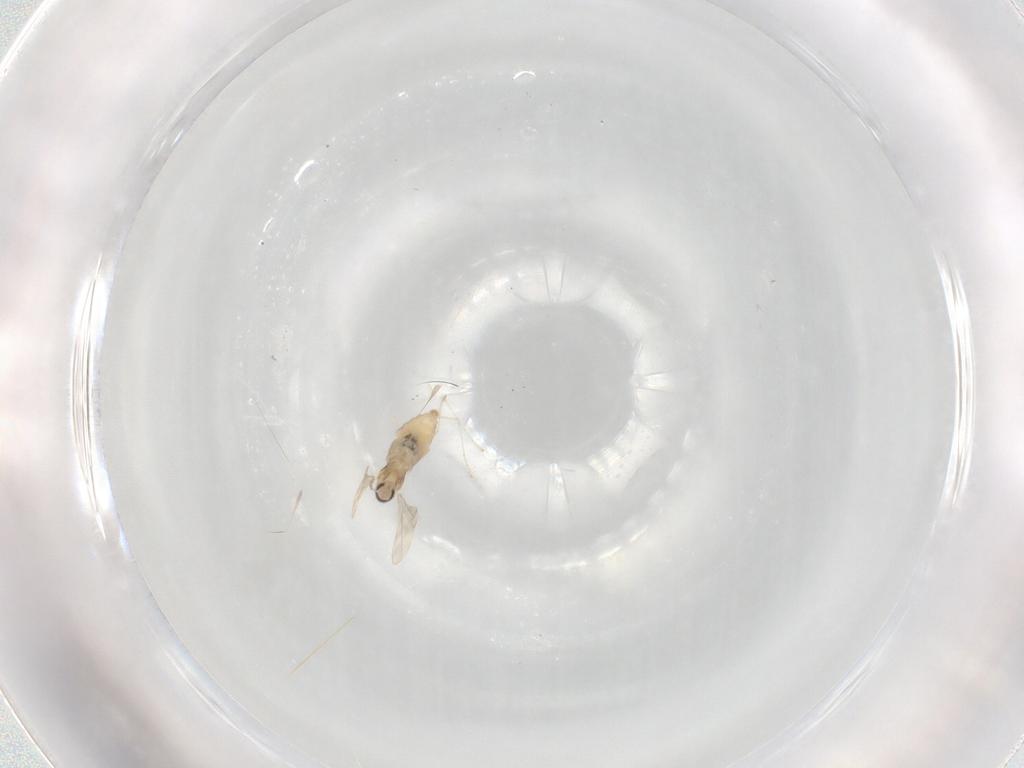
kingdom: Animalia
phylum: Arthropoda
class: Insecta
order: Diptera
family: Cecidomyiidae
